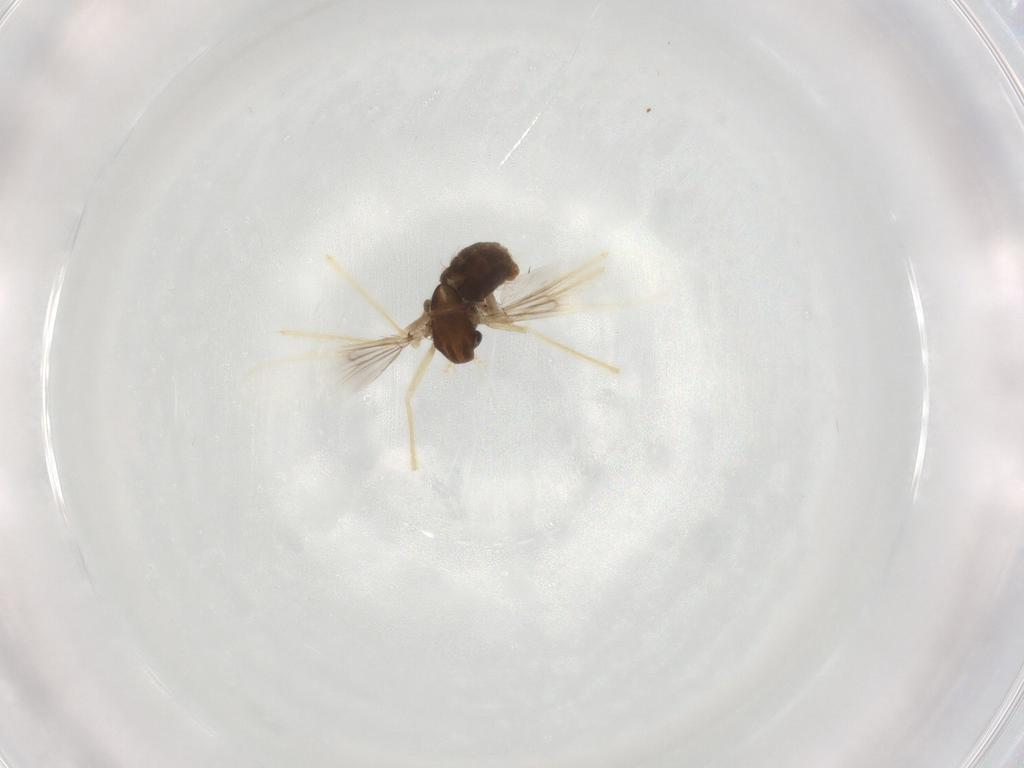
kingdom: Animalia
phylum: Arthropoda
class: Insecta
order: Diptera
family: Chironomidae
